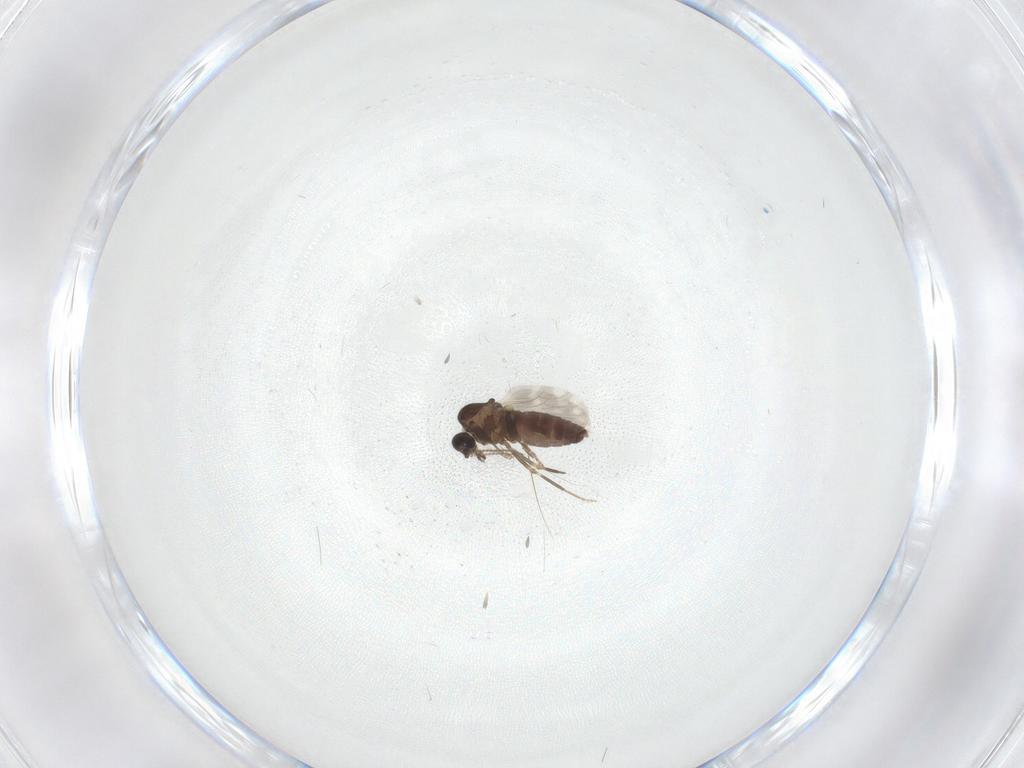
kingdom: Animalia
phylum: Arthropoda
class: Insecta
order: Diptera
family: Ceratopogonidae
